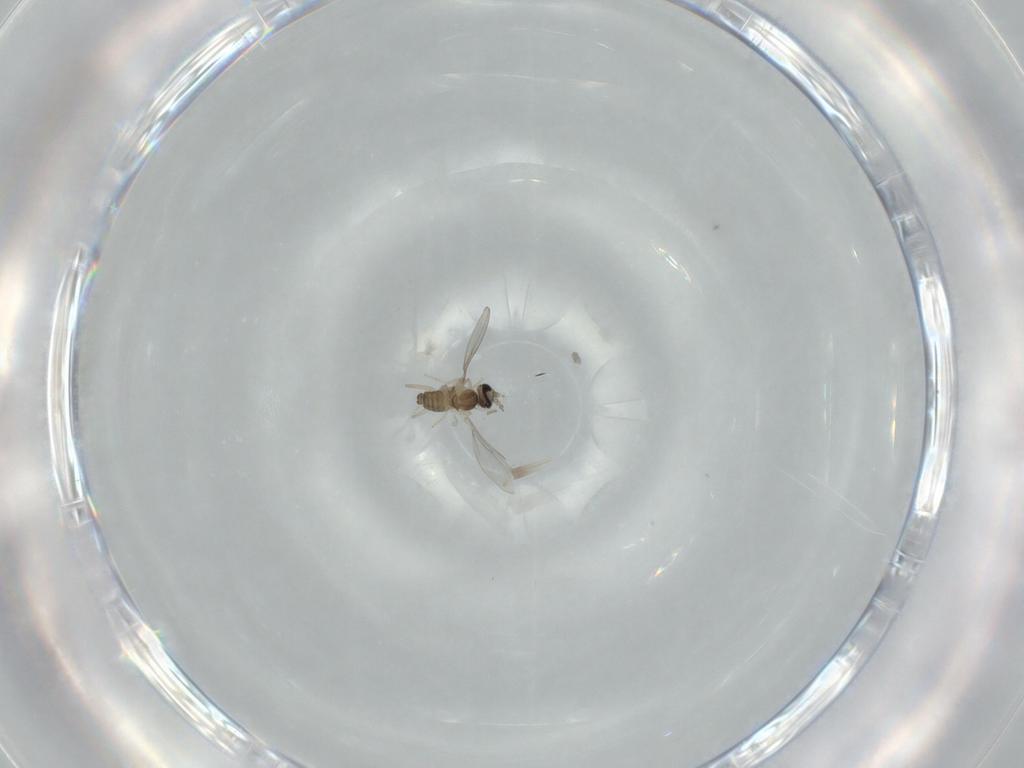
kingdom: Animalia
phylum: Arthropoda
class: Insecta
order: Diptera
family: Cecidomyiidae
